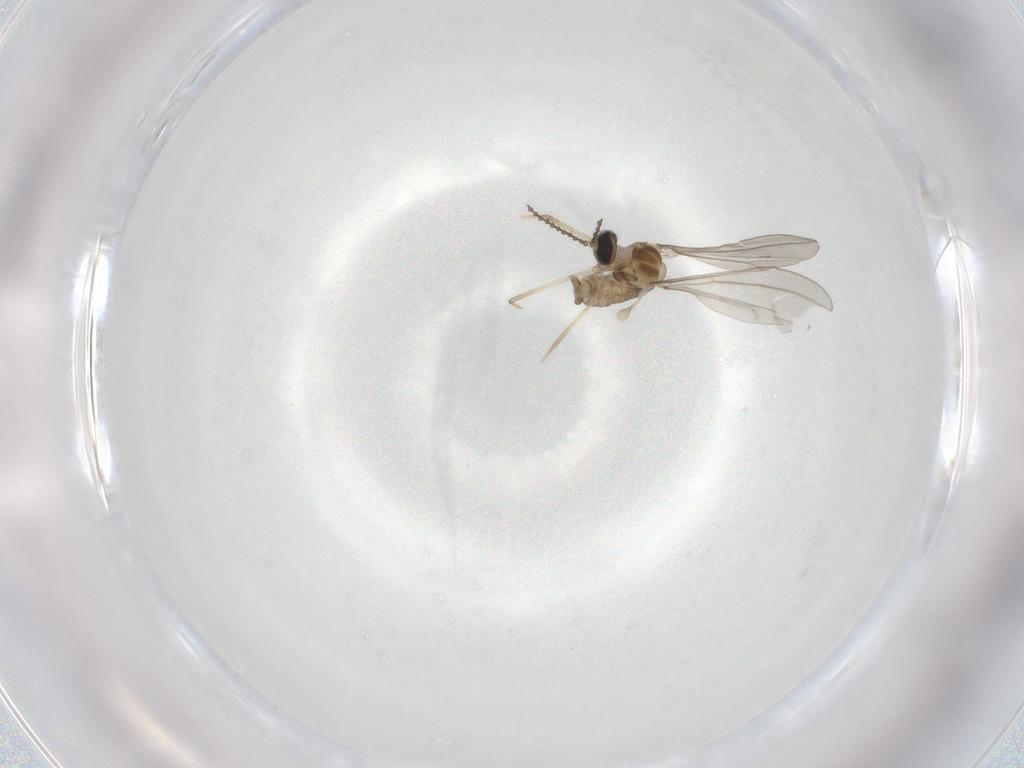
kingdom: Animalia
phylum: Arthropoda
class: Insecta
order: Diptera
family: Cecidomyiidae
